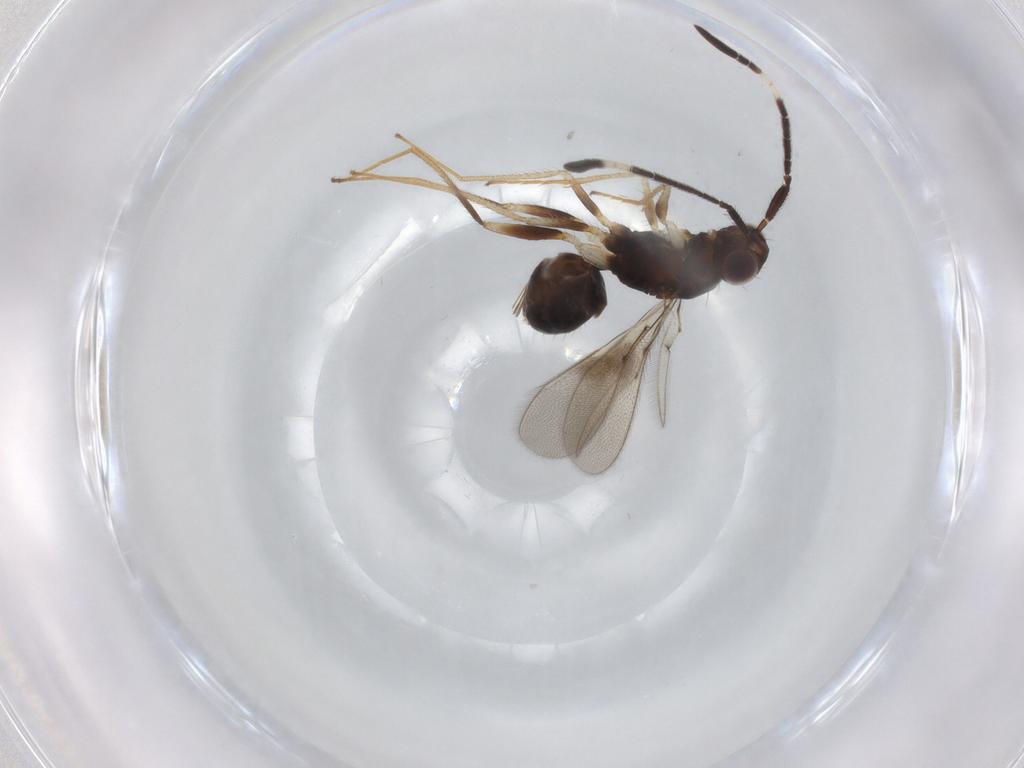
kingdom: Animalia
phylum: Arthropoda
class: Insecta
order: Hymenoptera
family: Mymaridae
